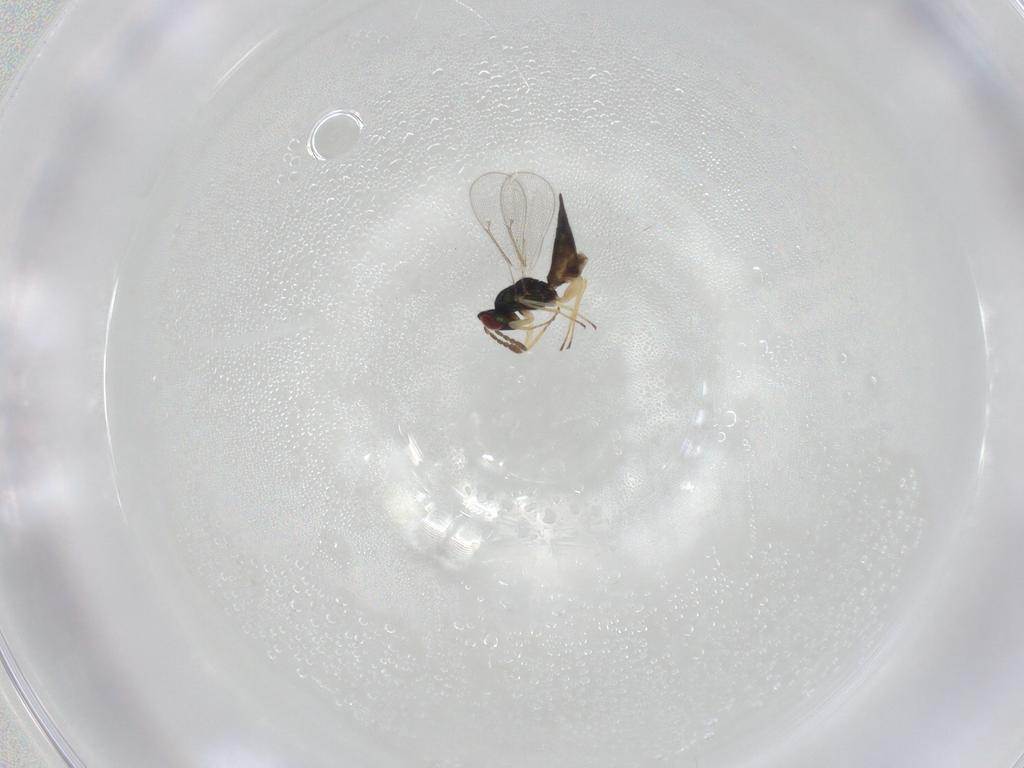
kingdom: Animalia
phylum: Arthropoda
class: Insecta
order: Hymenoptera
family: Eulophidae
